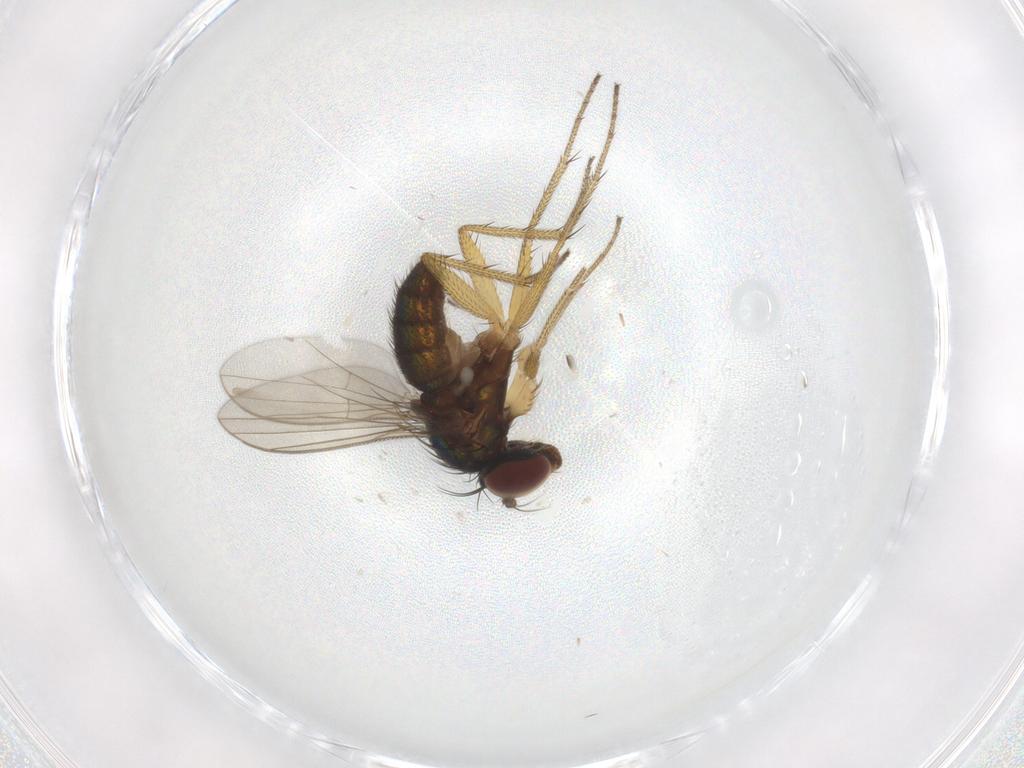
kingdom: Animalia
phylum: Arthropoda
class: Insecta
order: Diptera
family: Dolichopodidae
